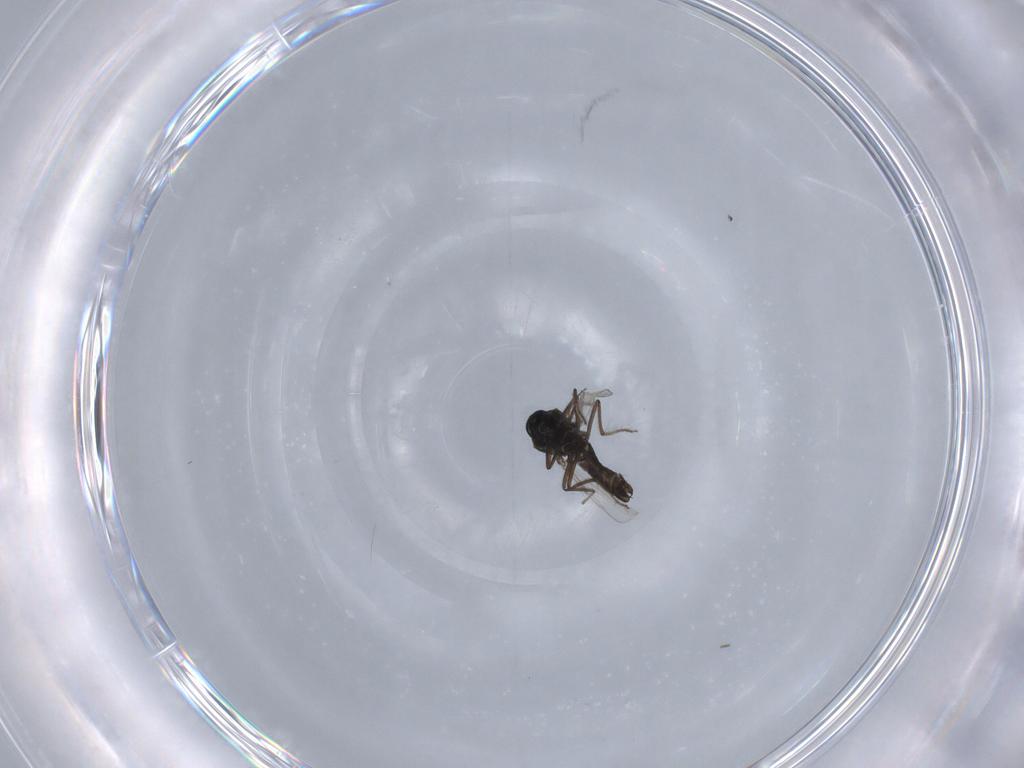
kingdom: Animalia
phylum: Arthropoda
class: Insecta
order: Diptera
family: Ceratopogonidae
